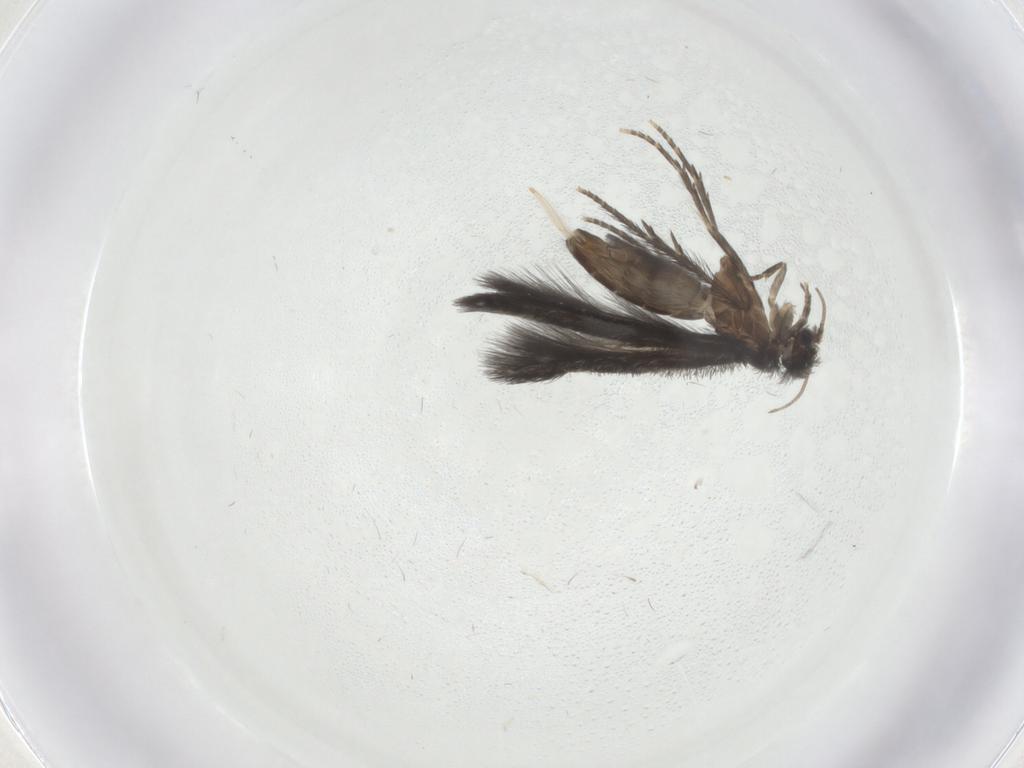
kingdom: Animalia
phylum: Arthropoda
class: Insecta
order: Trichoptera
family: Hydroptilidae
